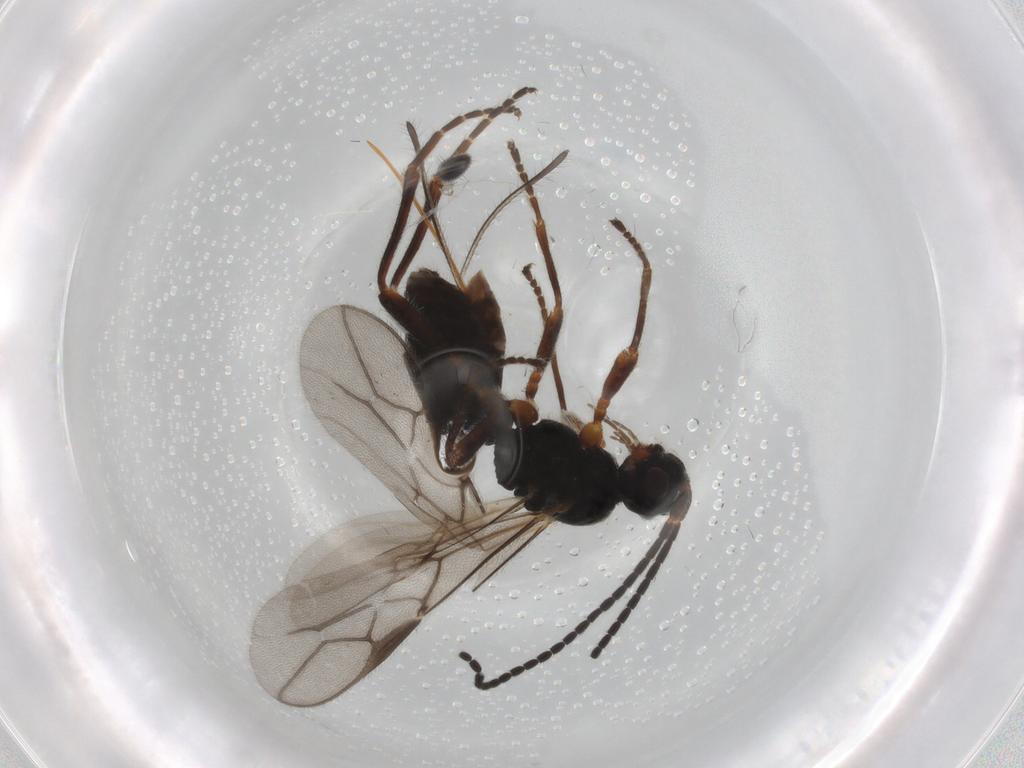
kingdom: Animalia
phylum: Arthropoda
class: Insecta
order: Hymenoptera
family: Braconidae
